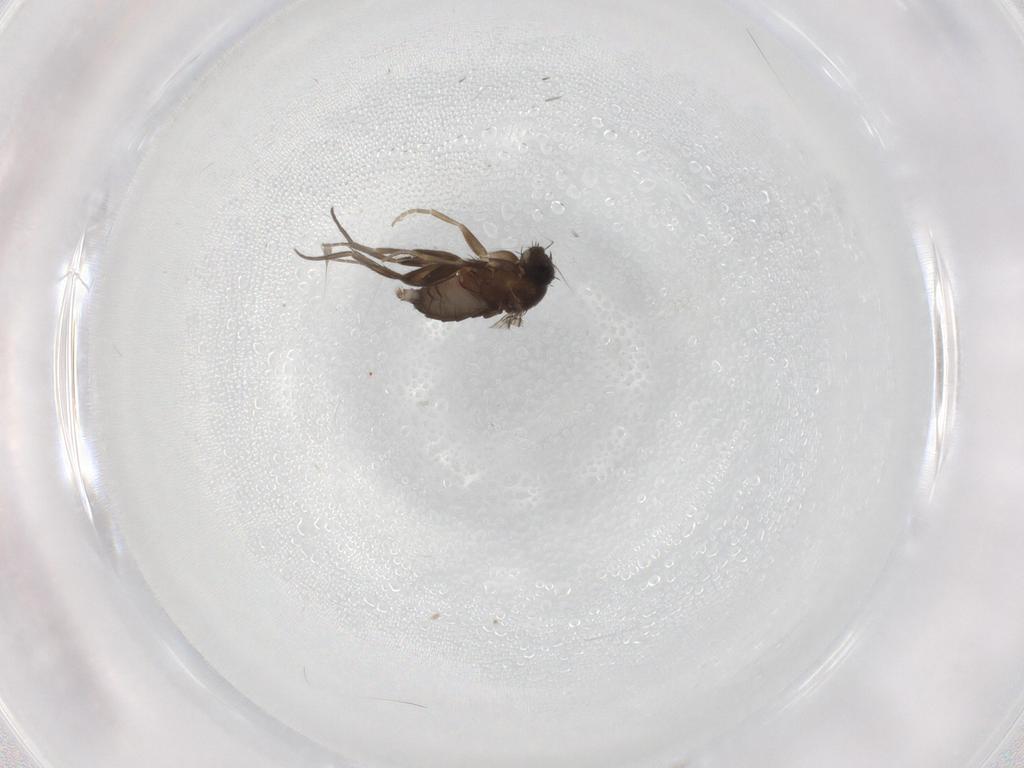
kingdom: Animalia
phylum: Arthropoda
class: Insecta
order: Diptera
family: Phoridae
